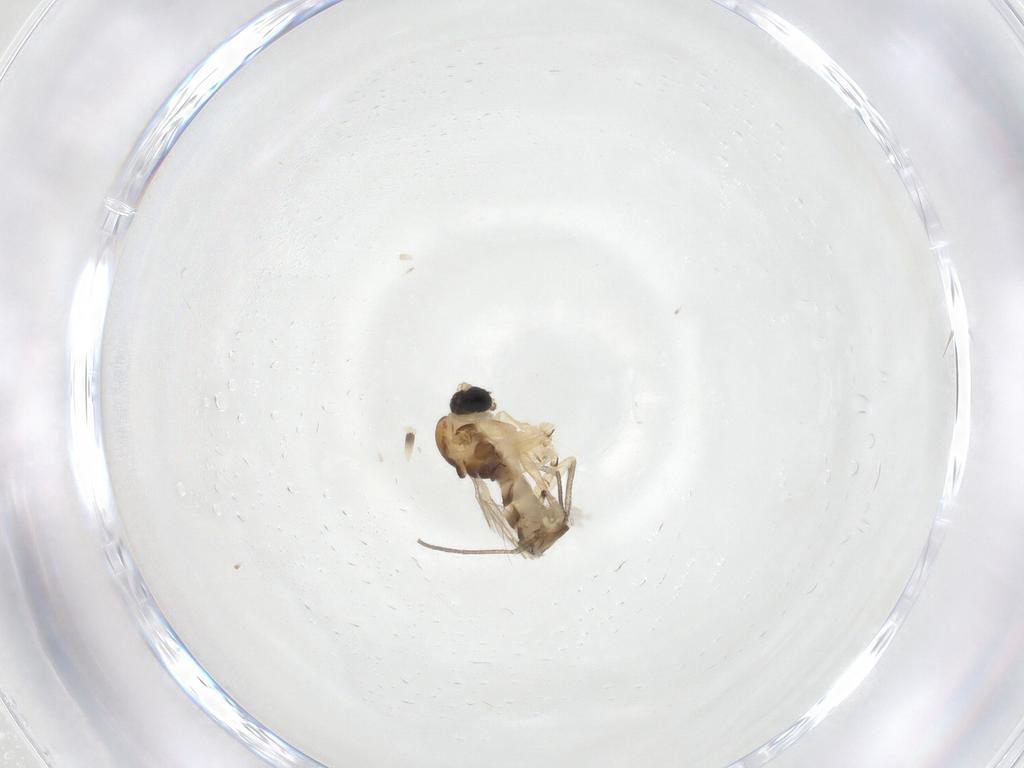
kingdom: Animalia
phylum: Arthropoda
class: Insecta
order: Diptera
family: Sciaridae
